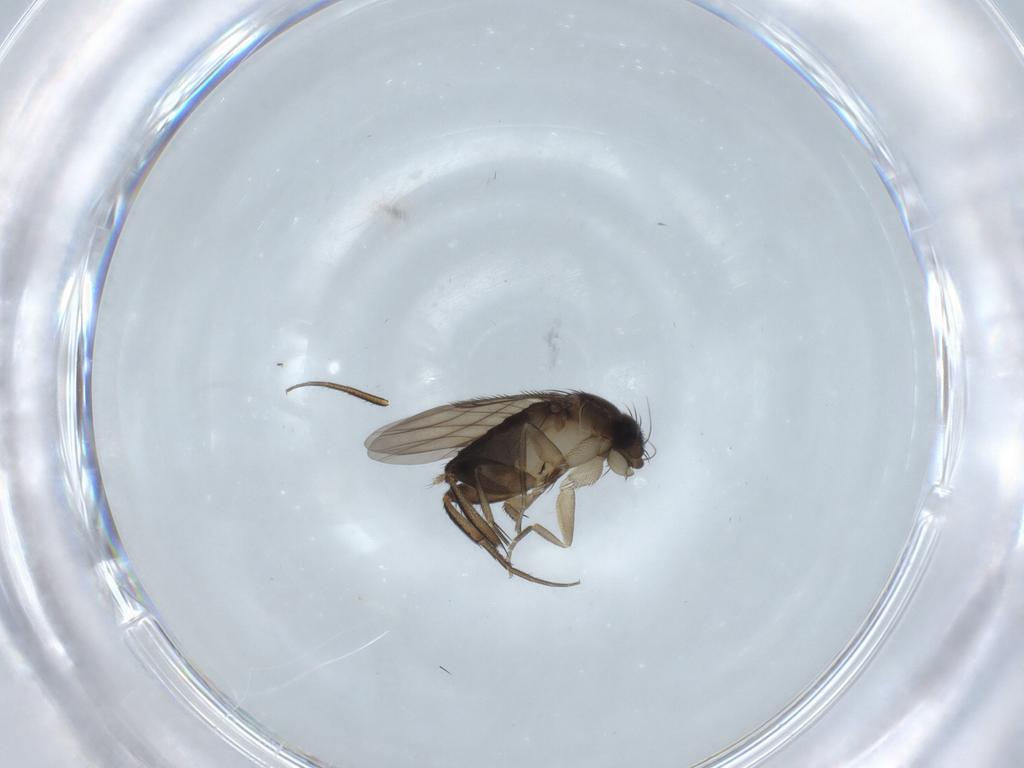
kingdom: Animalia
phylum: Arthropoda
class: Insecta
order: Diptera
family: Phoridae
